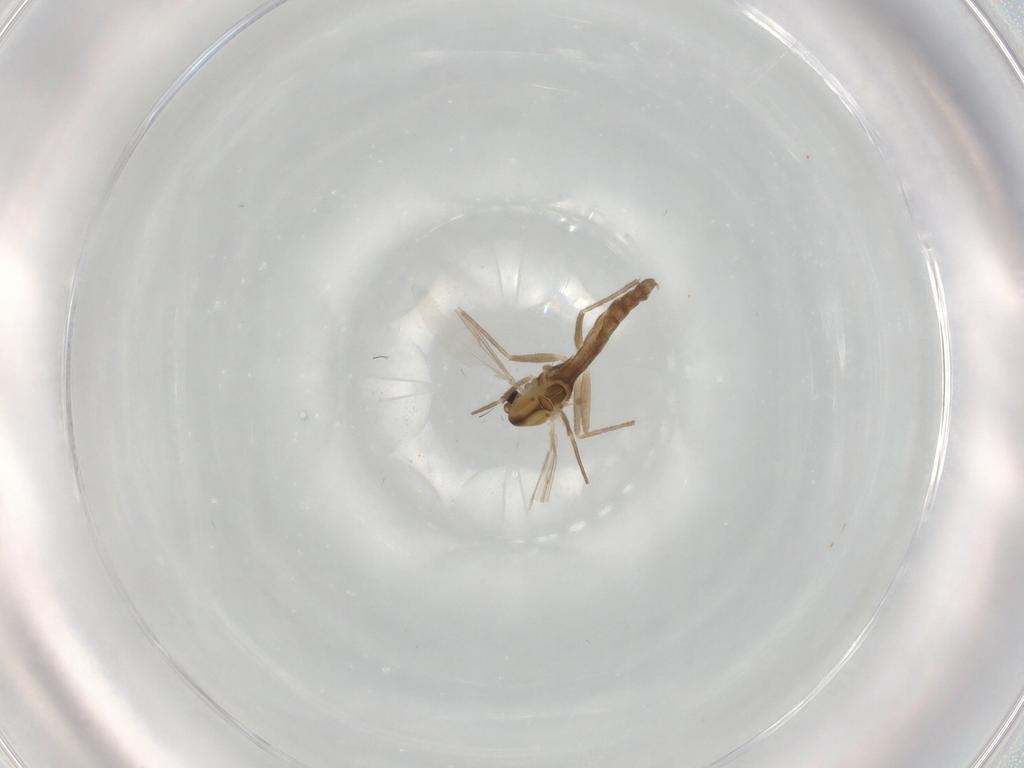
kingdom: Animalia
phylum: Arthropoda
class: Insecta
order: Diptera
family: Chironomidae
